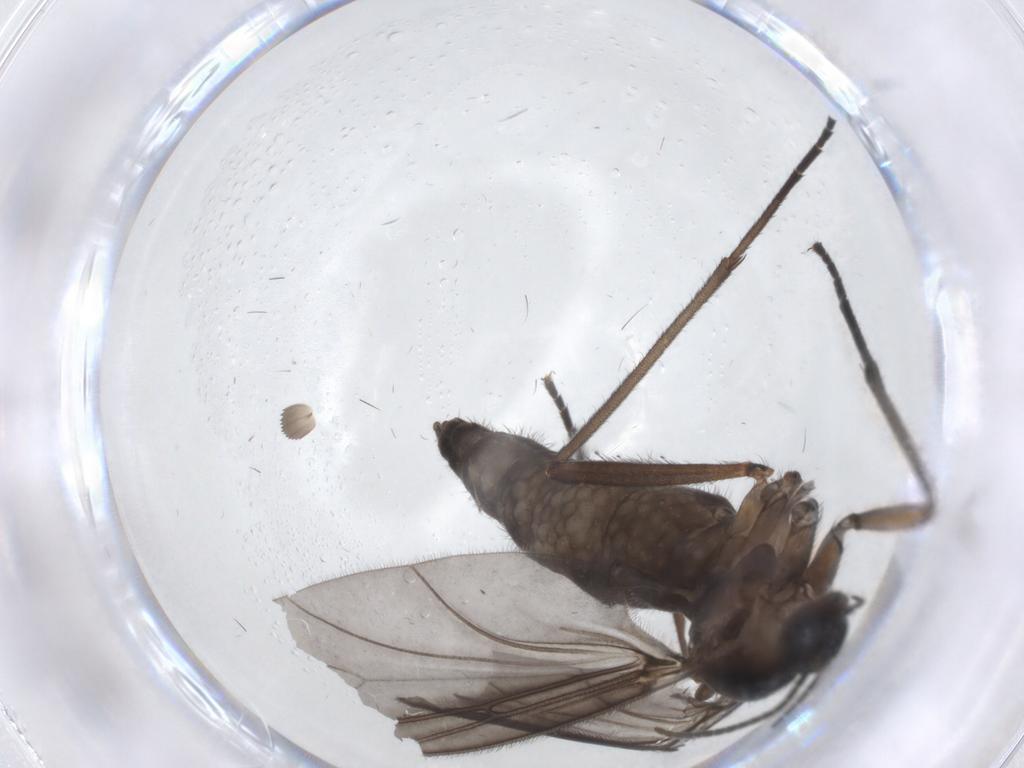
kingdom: Animalia
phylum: Arthropoda
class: Insecta
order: Diptera
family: Sciaridae
